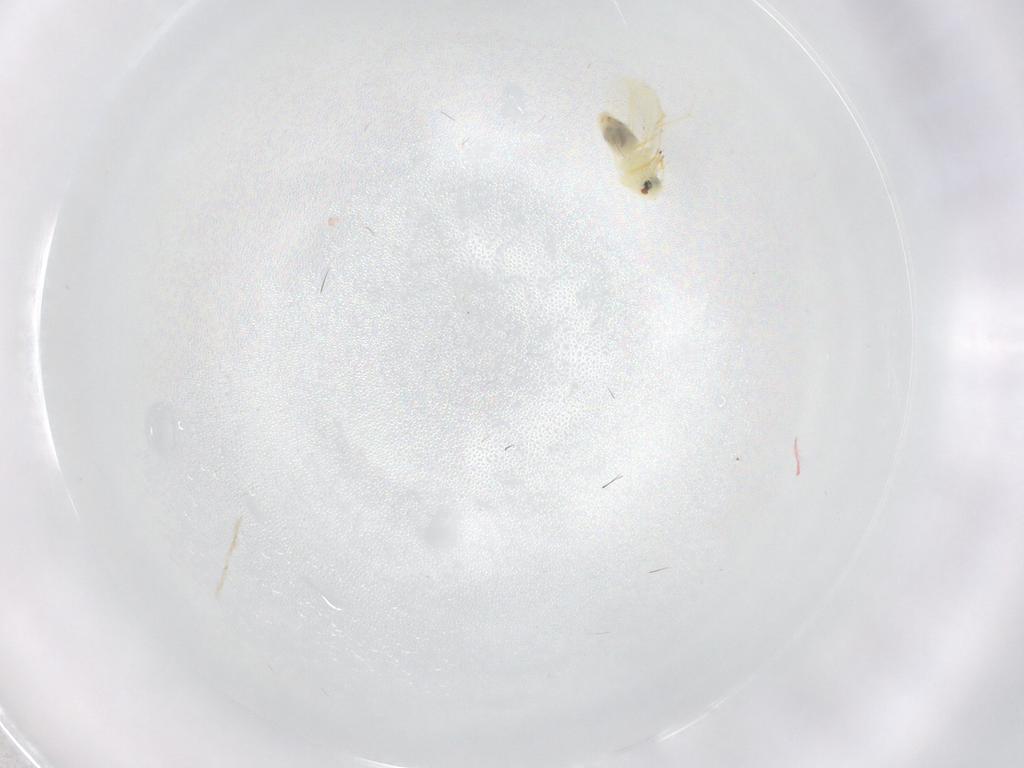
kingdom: Animalia
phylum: Arthropoda
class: Insecta
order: Hemiptera
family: Aleyrodidae
